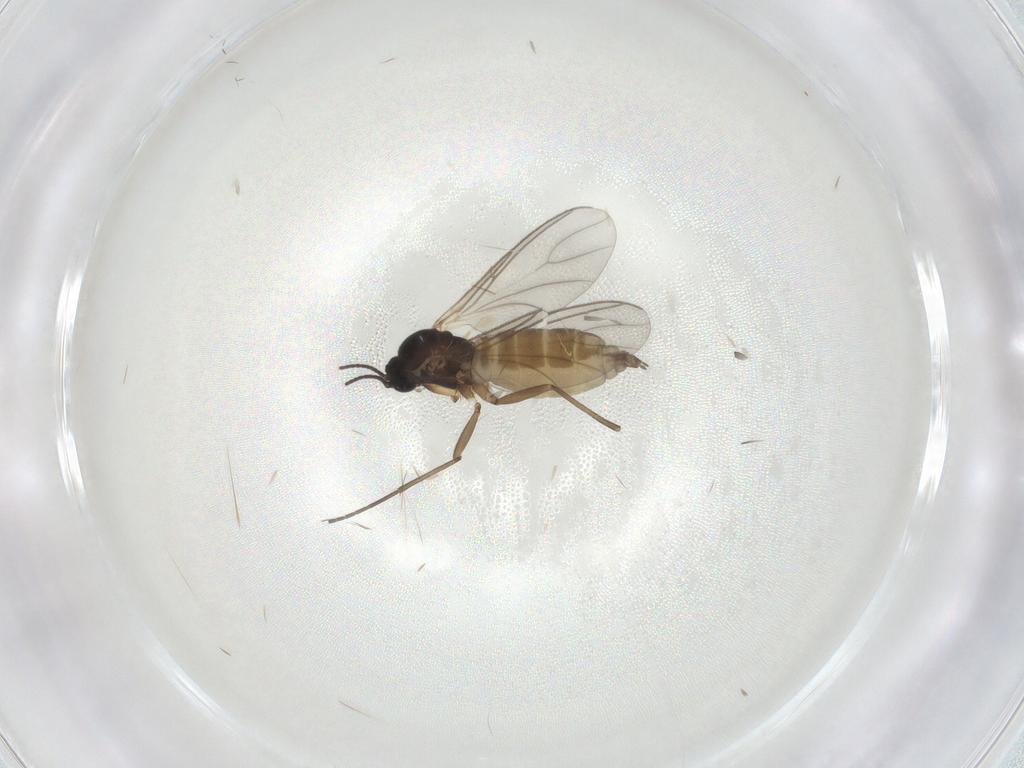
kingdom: Animalia
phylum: Arthropoda
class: Insecta
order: Diptera
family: Sciaridae
